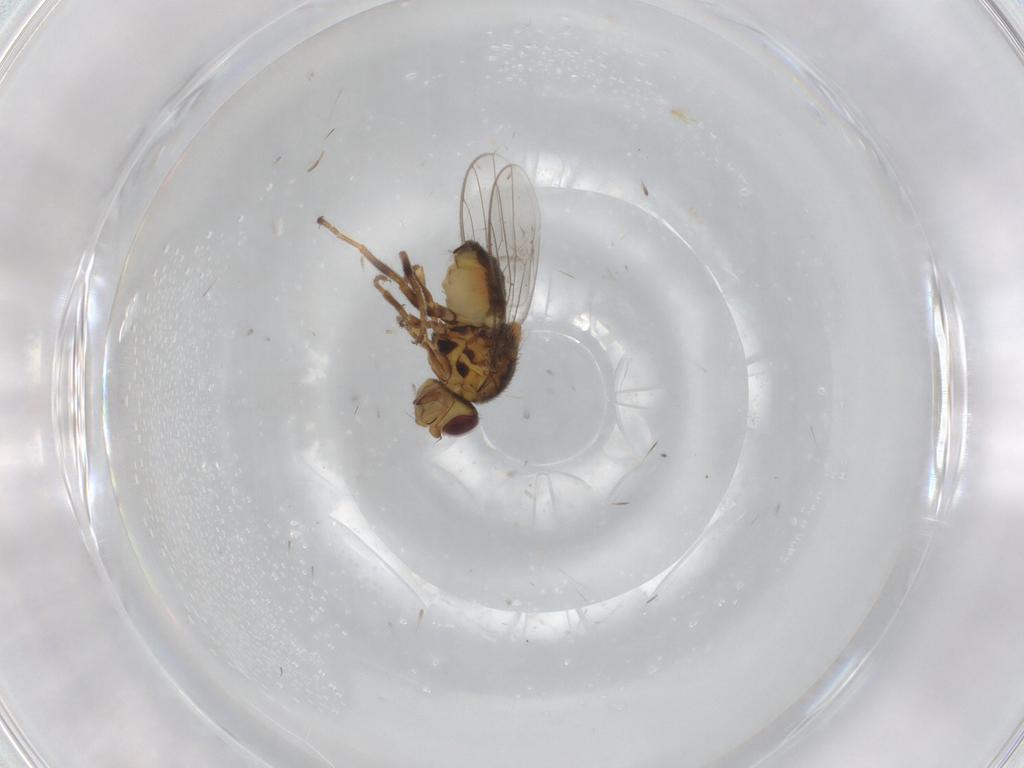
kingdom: Animalia
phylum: Arthropoda
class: Insecta
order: Diptera
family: Chloropidae
